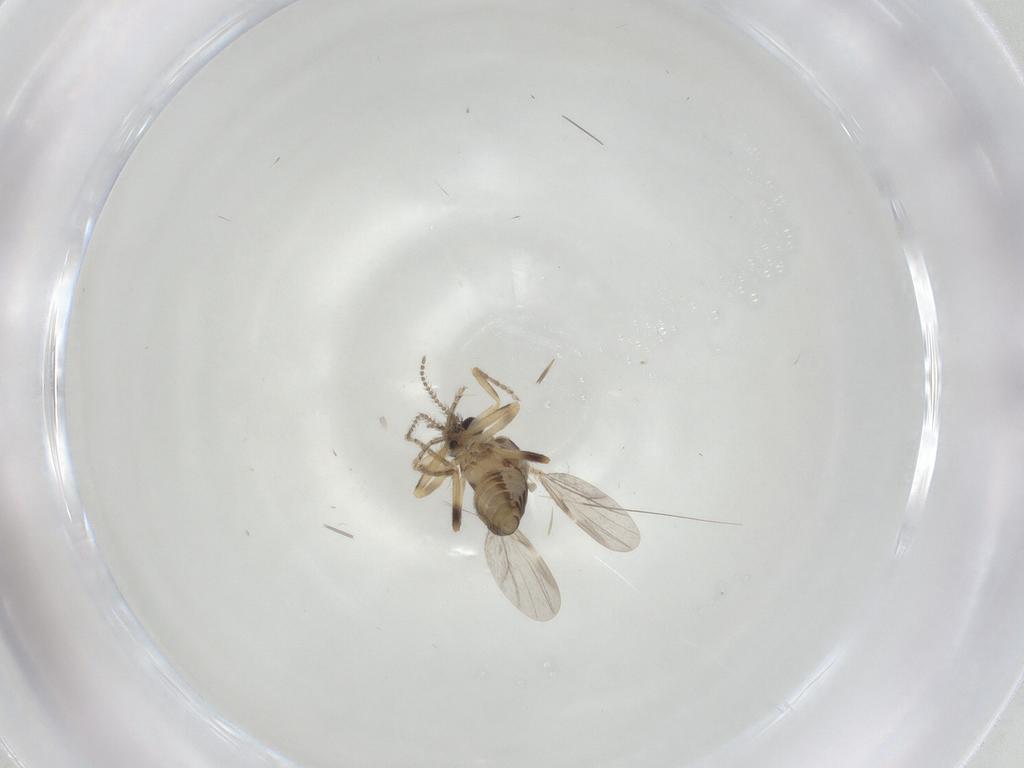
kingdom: Animalia
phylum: Arthropoda
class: Insecta
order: Diptera
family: Ceratopogonidae
